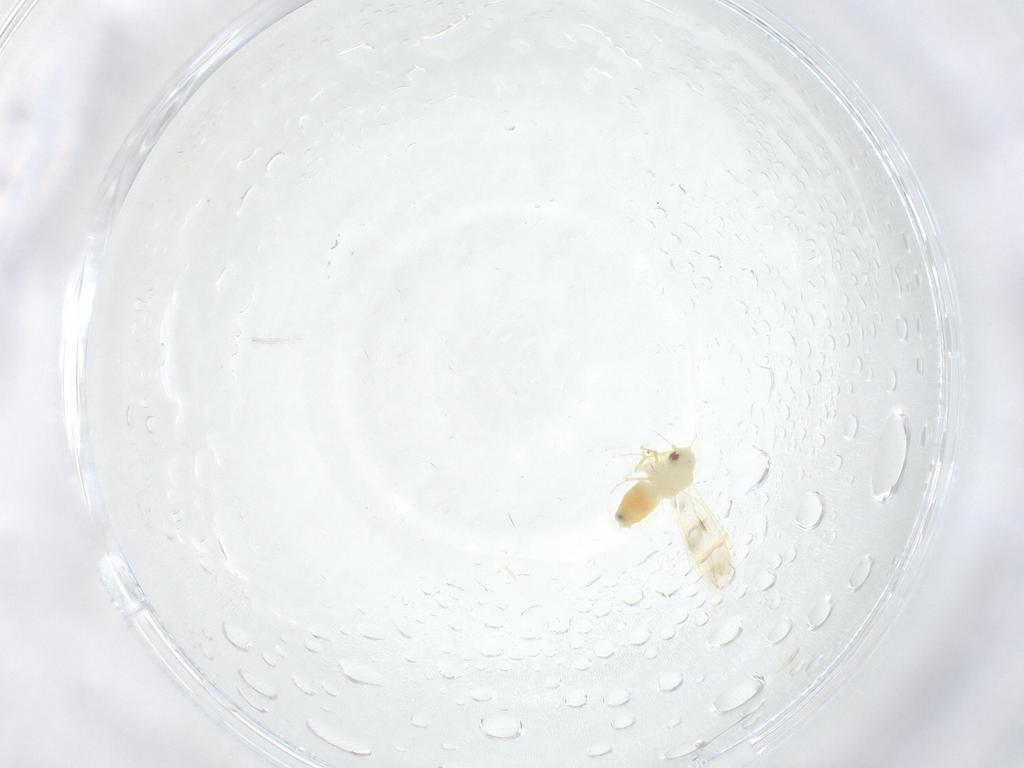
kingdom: Animalia
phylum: Arthropoda
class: Insecta
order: Hemiptera
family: Aleyrodidae
